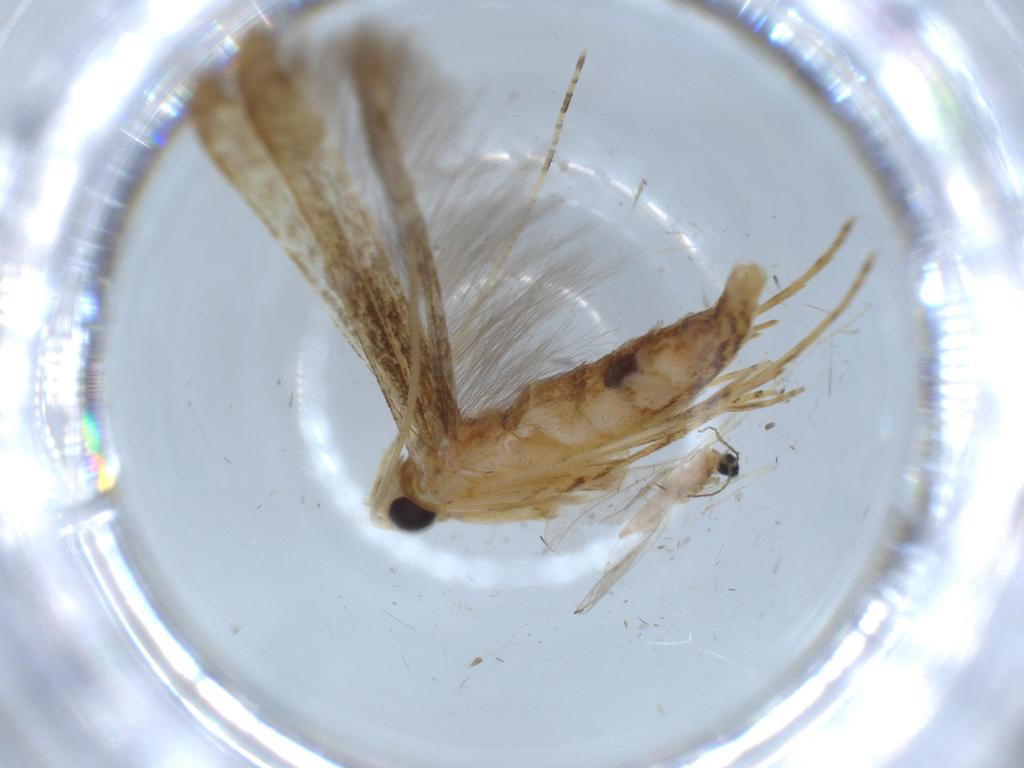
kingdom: Animalia
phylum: Arthropoda
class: Insecta
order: Lepidoptera
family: Batrachedridae
